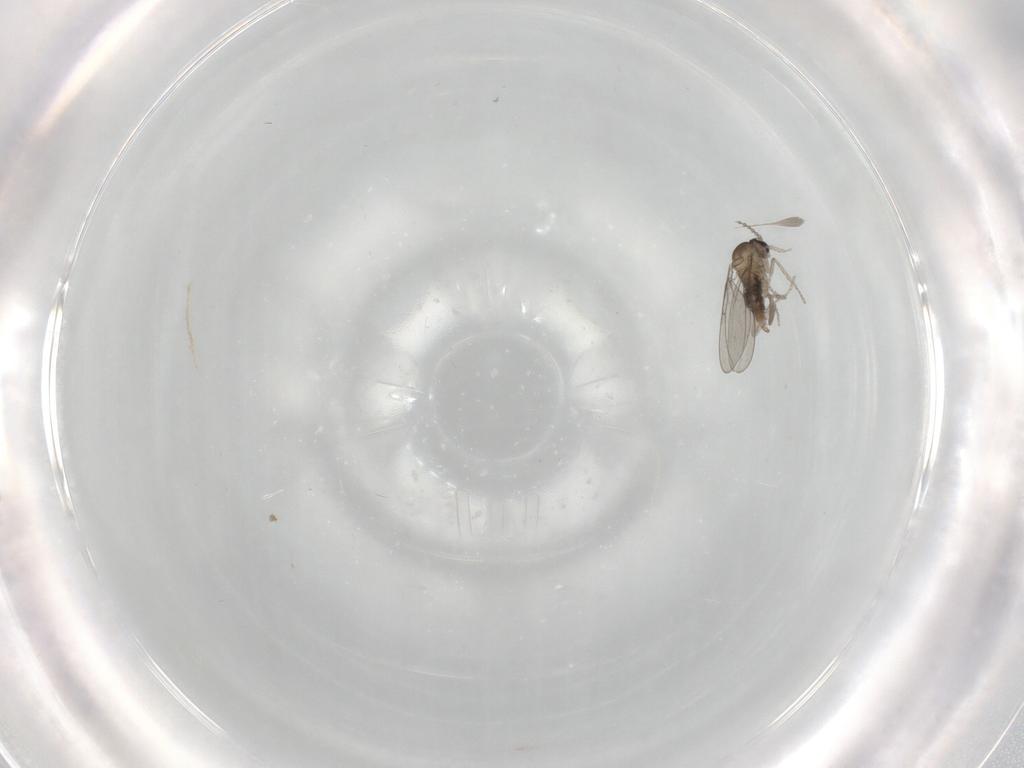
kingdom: Animalia
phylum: Arthropoda
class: Insecta
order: Diptera
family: Cecidomyiidae
